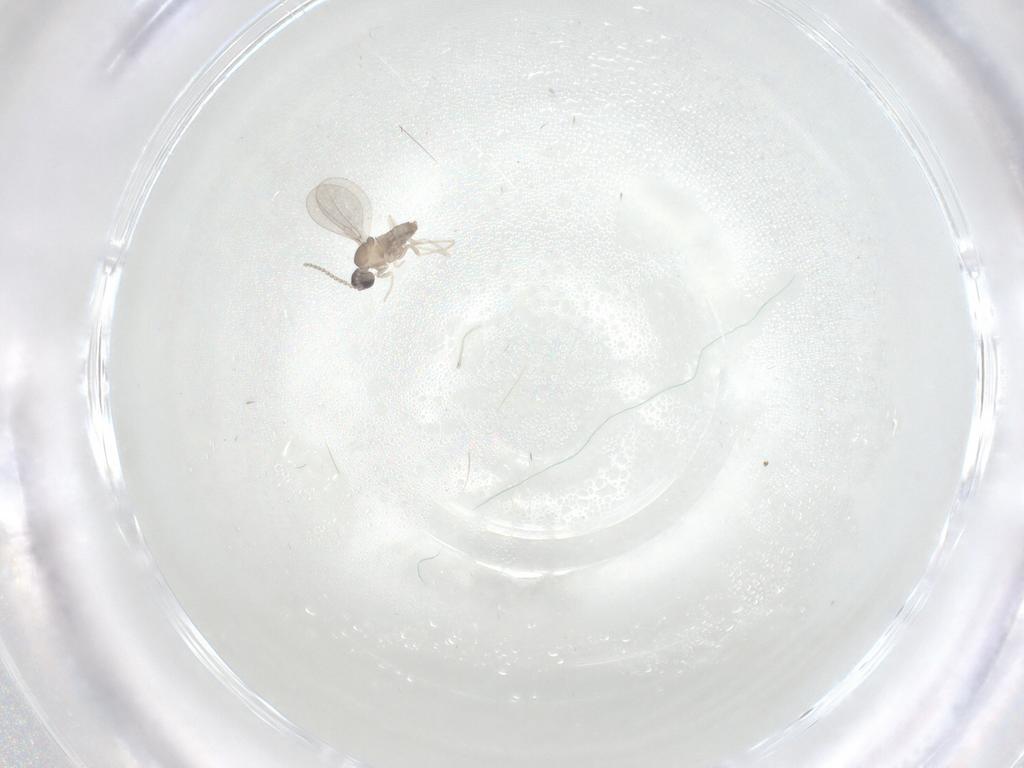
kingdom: Animalia
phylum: Arthropoda
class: Insecta
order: Diptera
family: Cecidomyiidae
